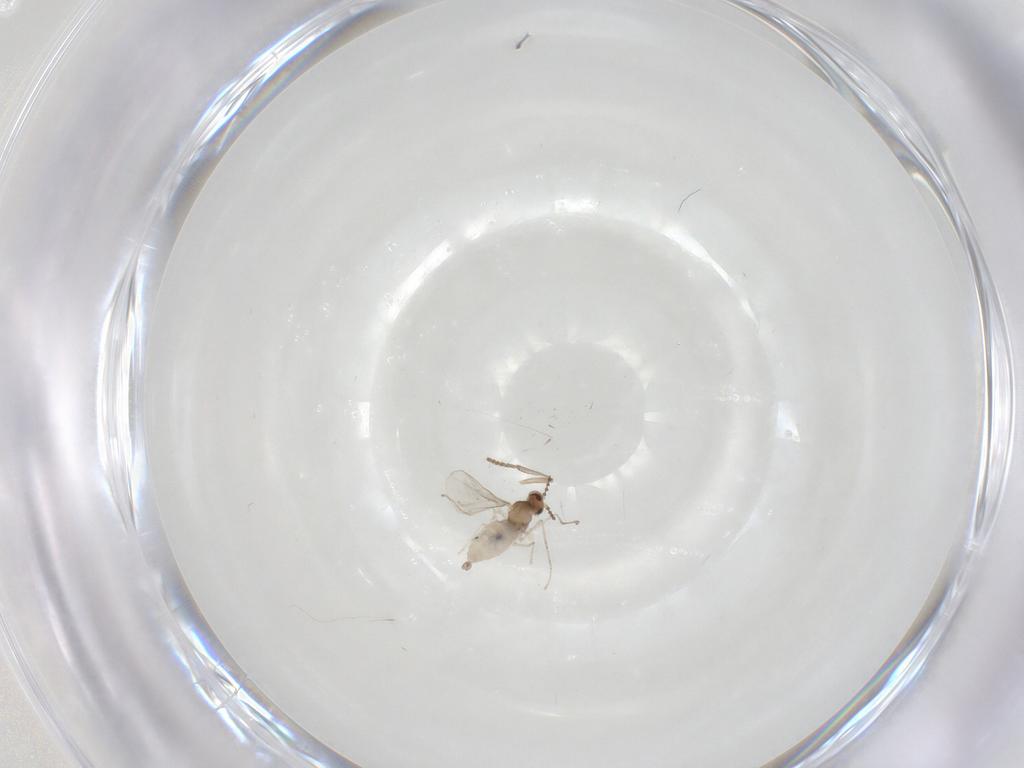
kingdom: Animalia
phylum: Arthropoda
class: Insecta
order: Diptera
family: Cecidomyiidae
